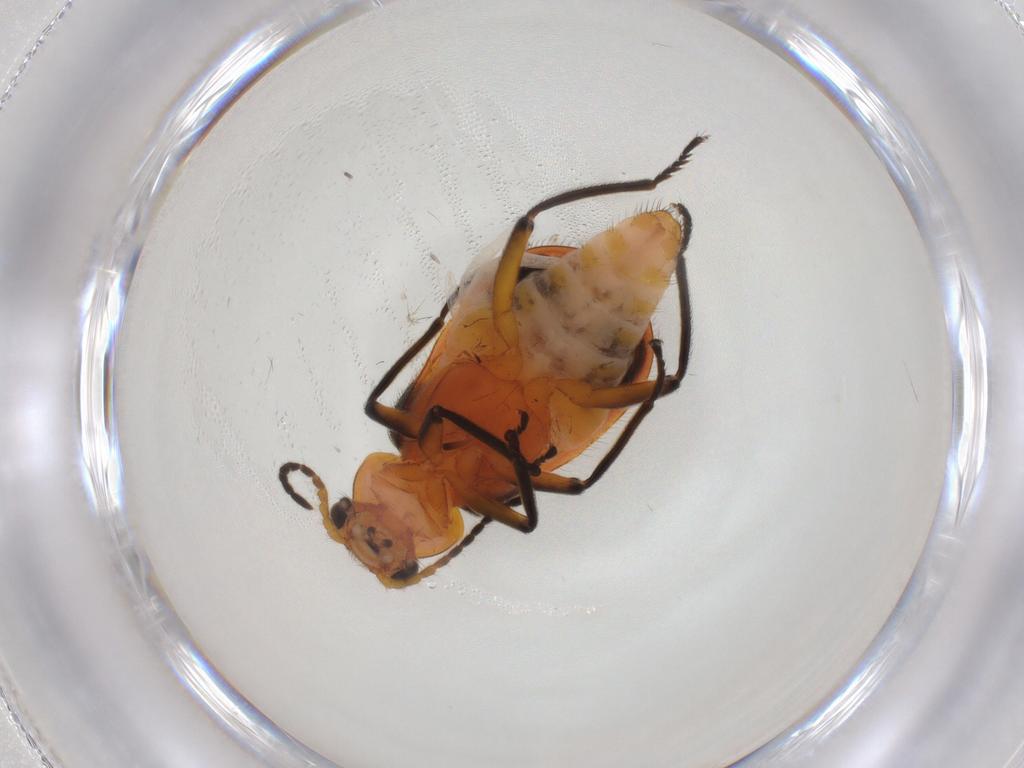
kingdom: Animalia
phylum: Arthropoda
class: Insecta
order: Coleoptera
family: Melyridae
